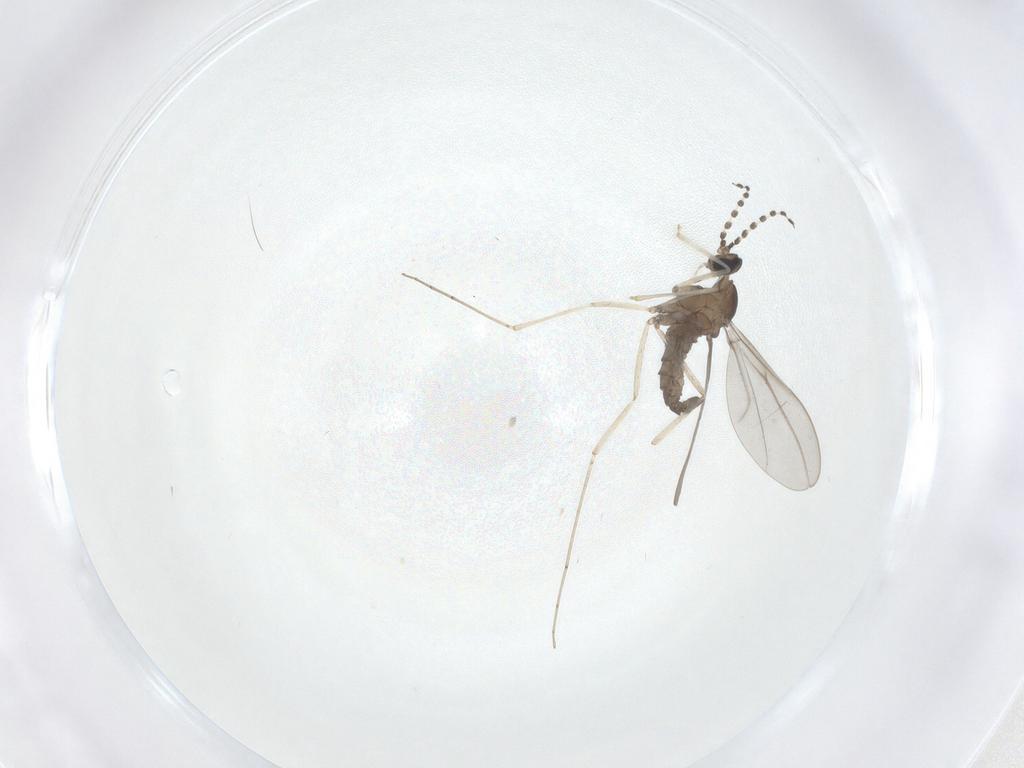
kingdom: Animalia
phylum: Arthropoda
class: Insecta
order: Diptera
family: Cecidomyiidae
